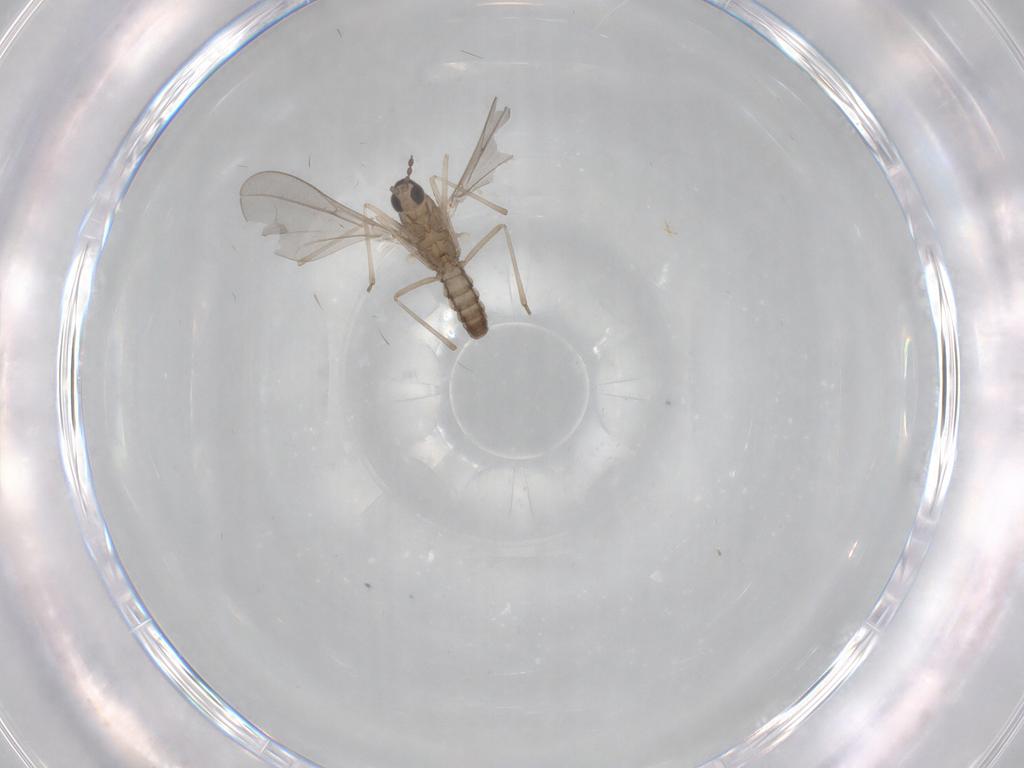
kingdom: Animalia
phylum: Arthropoda
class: Insecta
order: Diptera
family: Cecidomyiidae
